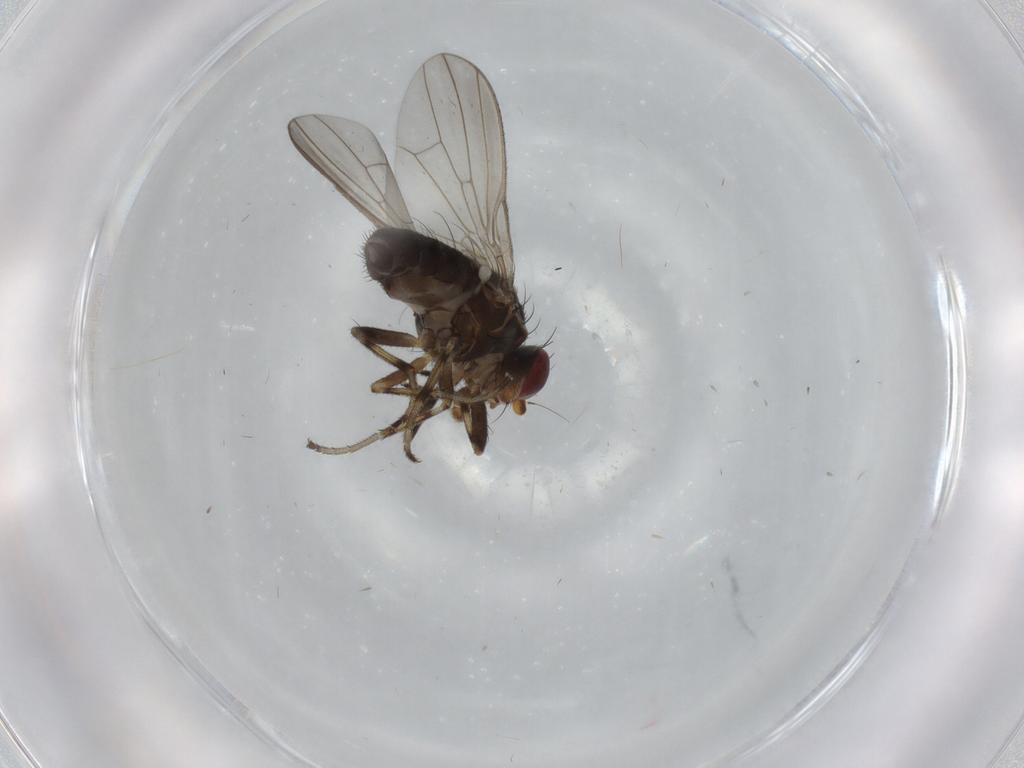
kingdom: Animalia
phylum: Arthropoda
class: Insecta
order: Diptera
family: Heleomyzidae
